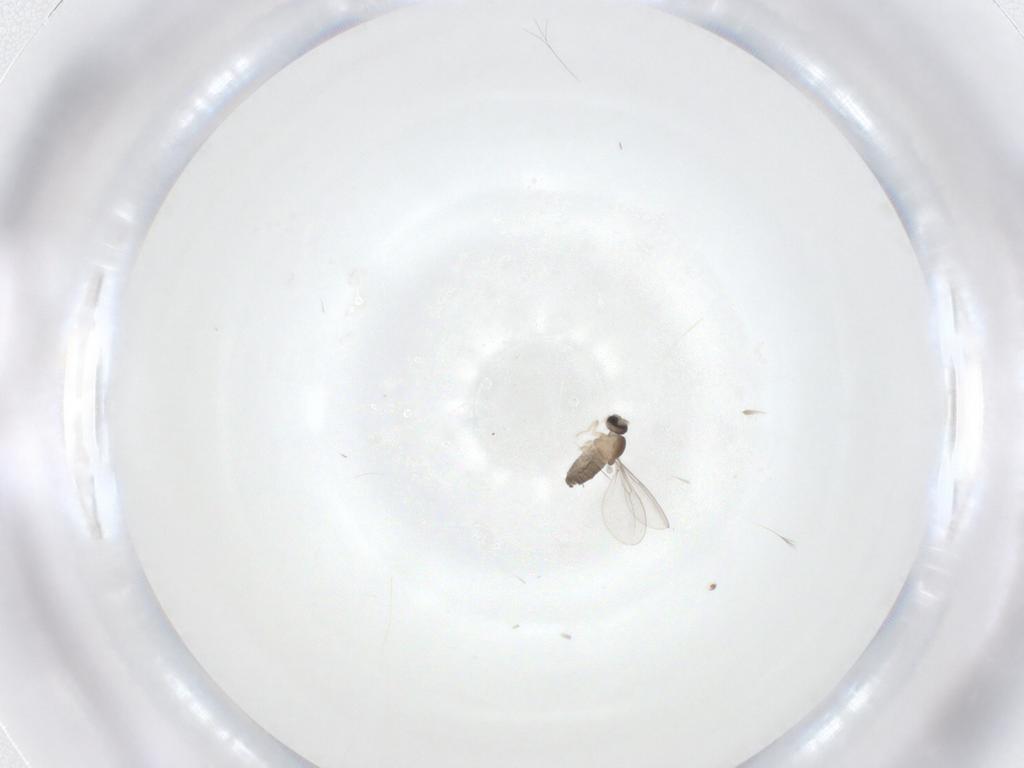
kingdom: Animalia
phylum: Arthropoda
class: Insecta
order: Diptera
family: Cecidomyiidae
